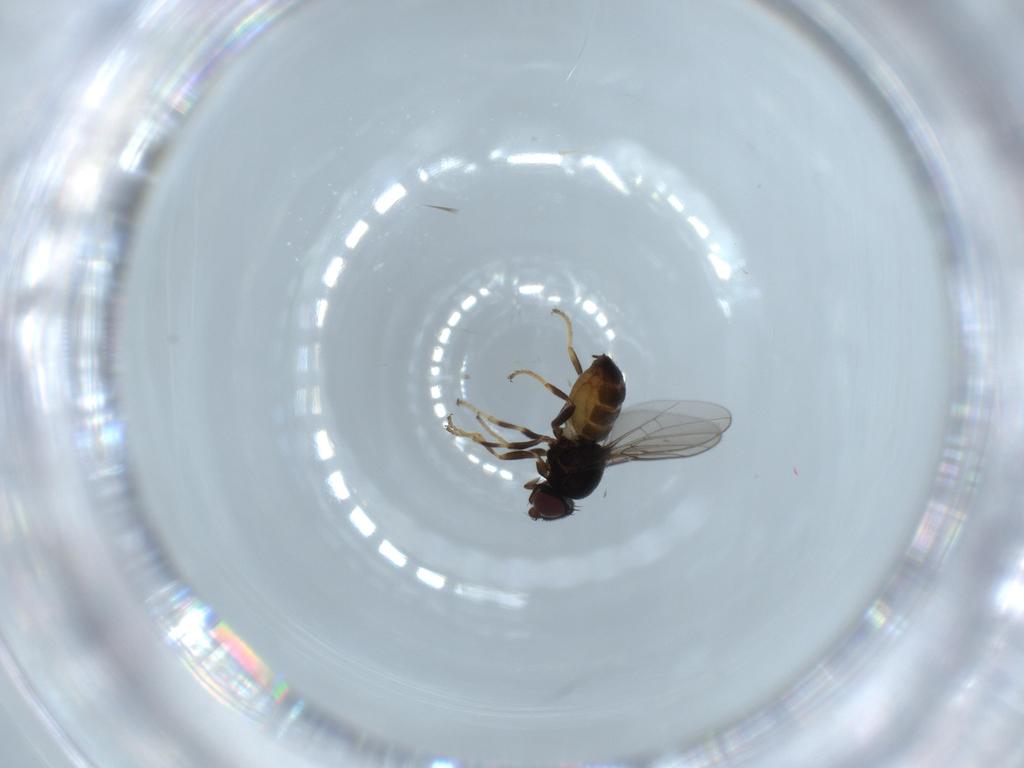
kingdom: Animalia
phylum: Arthropoda
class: Insecta
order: Diptera
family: Chloropidae
